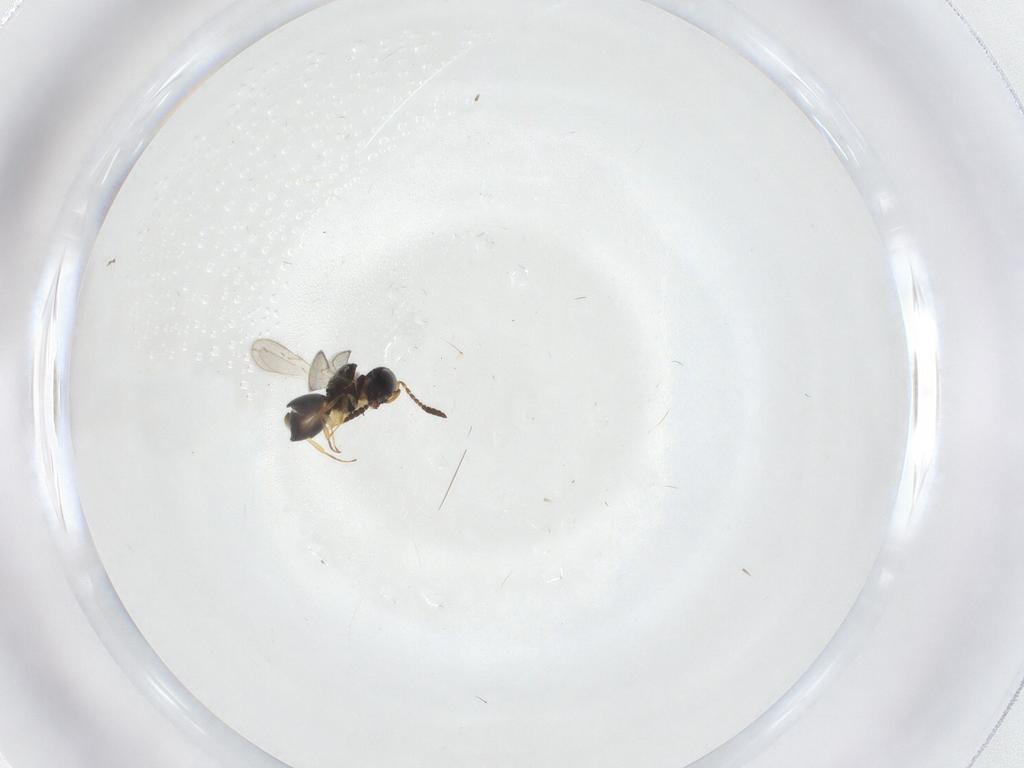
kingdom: Animalia
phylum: Arthropoda
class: Insecta
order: Hymenoptera
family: Scelionidae
